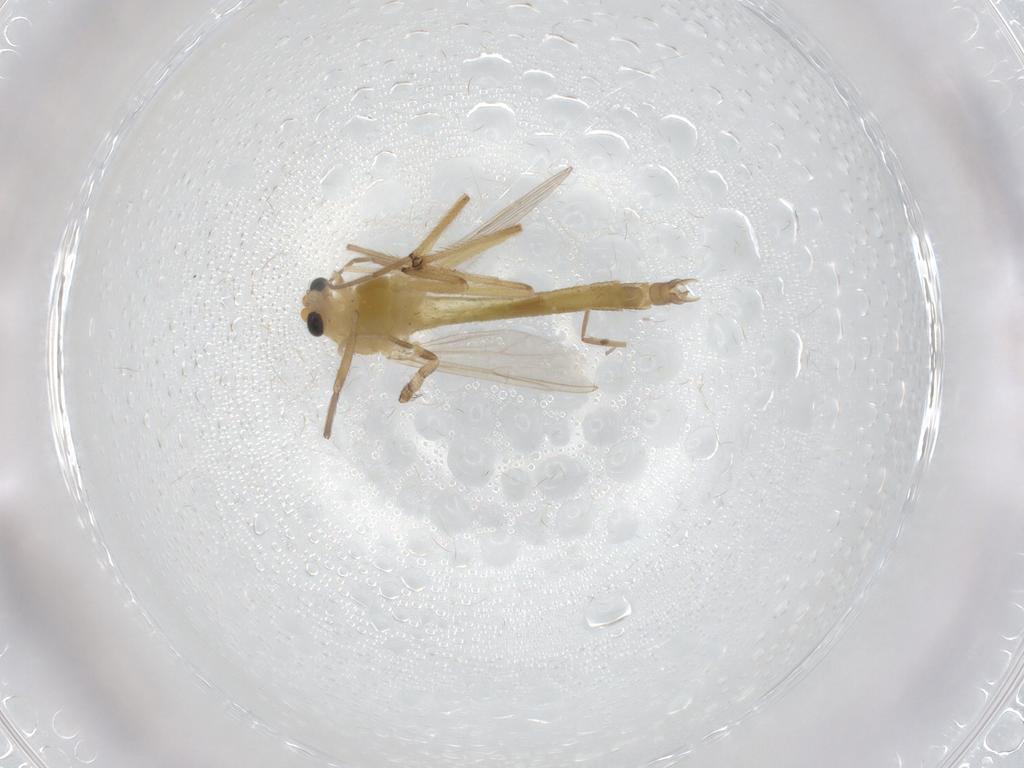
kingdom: Animalia
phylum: Arthropoda
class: Insecta
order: Diptera
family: Chironomidae
